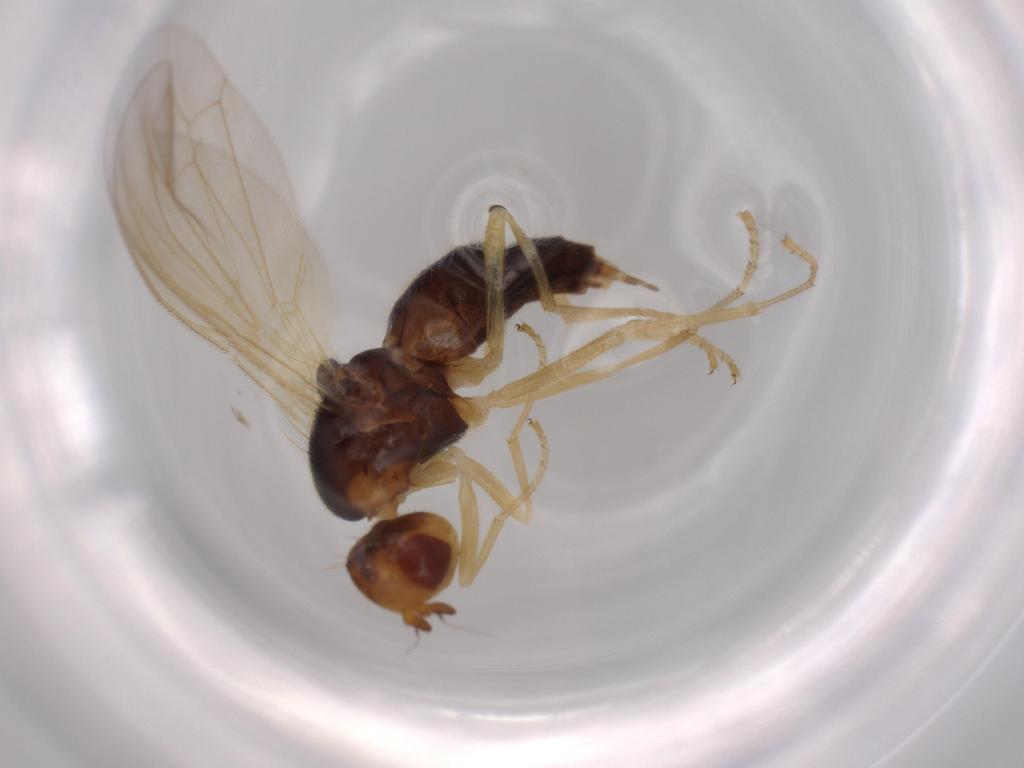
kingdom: Animalia
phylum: Arthropoda
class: Insecta
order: Diptera
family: Psilidae
